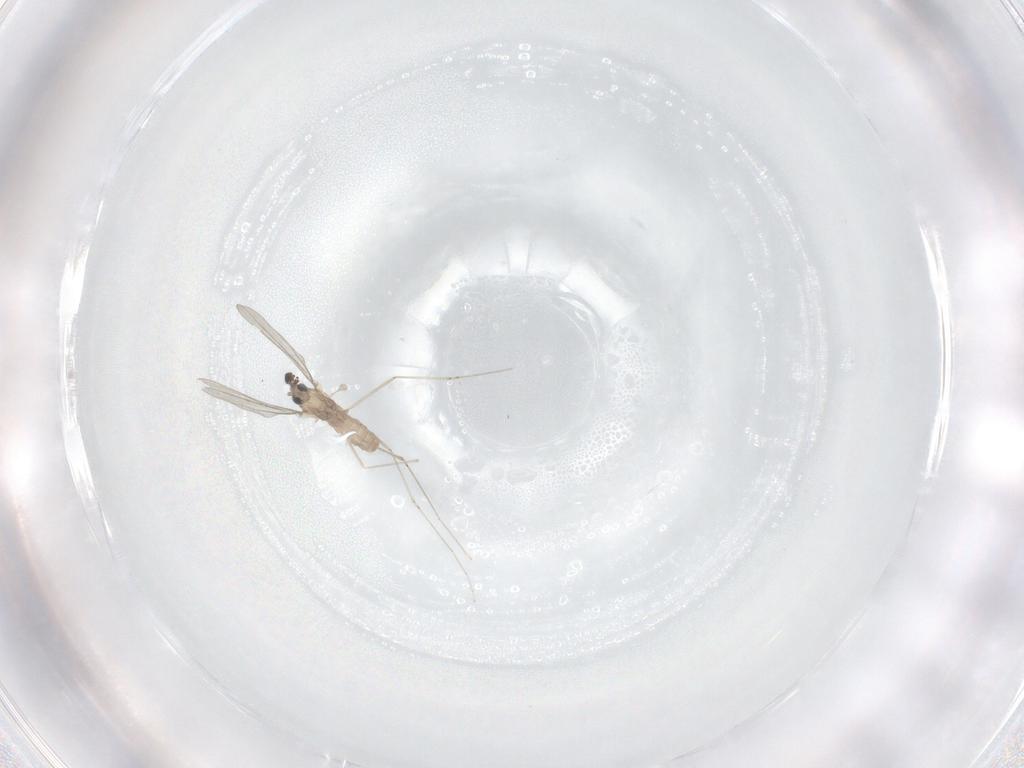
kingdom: Animalia
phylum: Arthropoda
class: Insecta
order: Diptera
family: Cecidomyiidae
